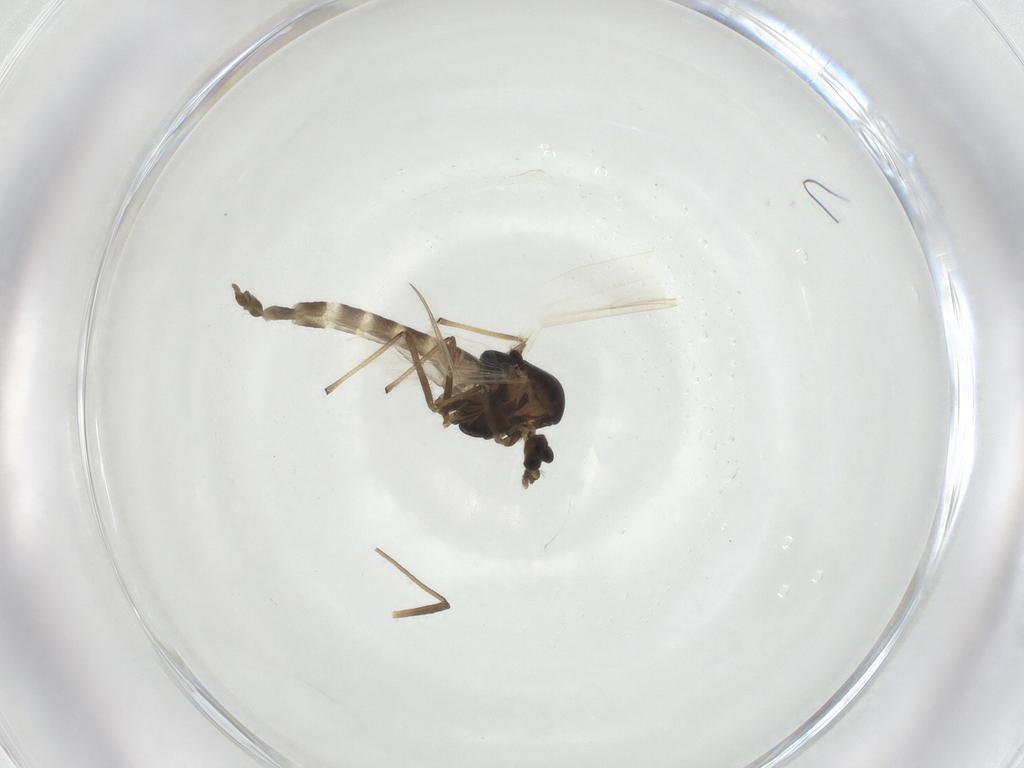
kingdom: Animalia
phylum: Arthropoda
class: Insecta
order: Diptera
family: Chironomidae
